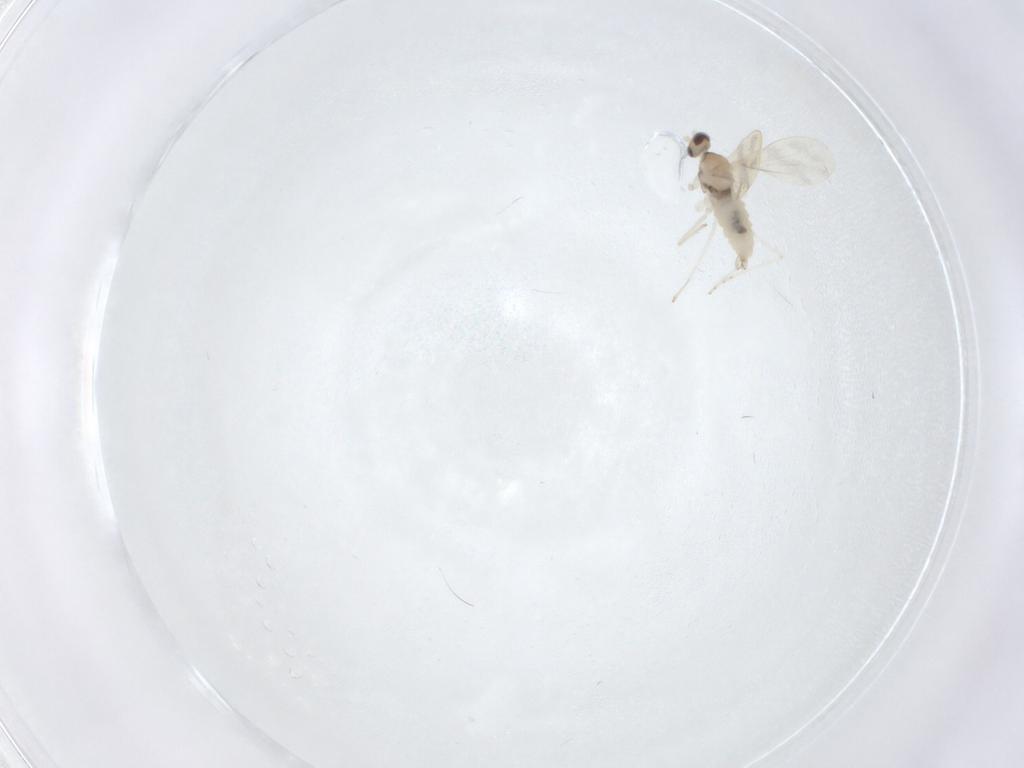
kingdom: Animalia
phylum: Arthropoda
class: Insecta
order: Diptera
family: Cecidomyiidae
